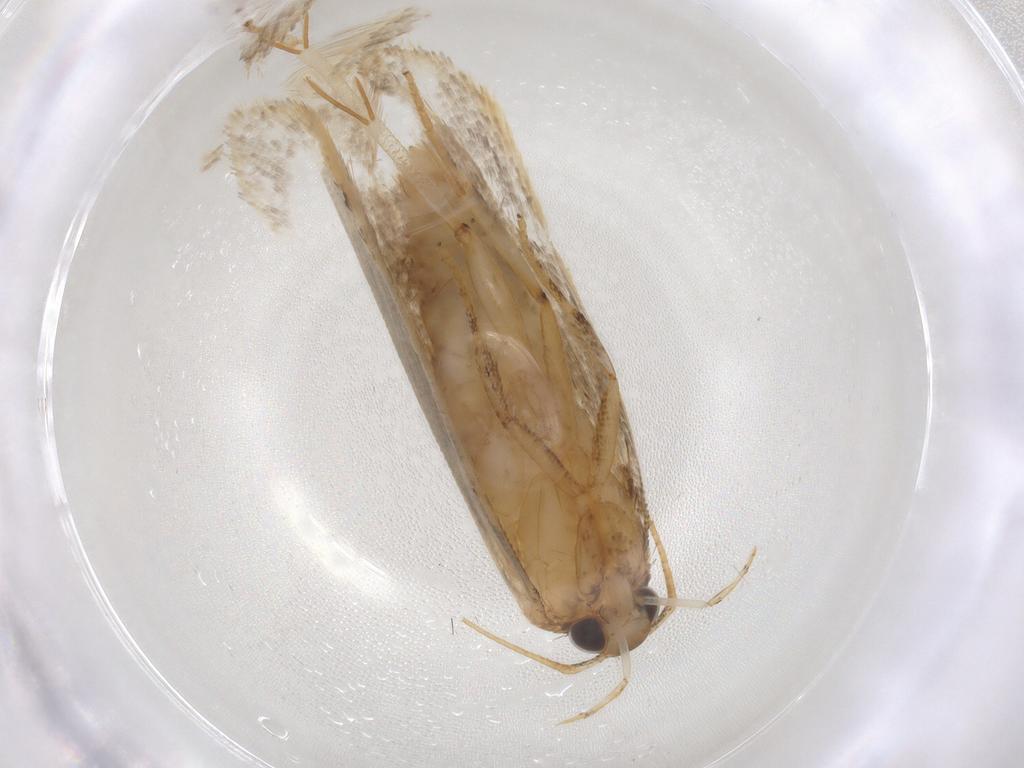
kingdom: Animalia
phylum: Arthropoda
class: Insecta
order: Lepidoptera
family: Gelechiidae
